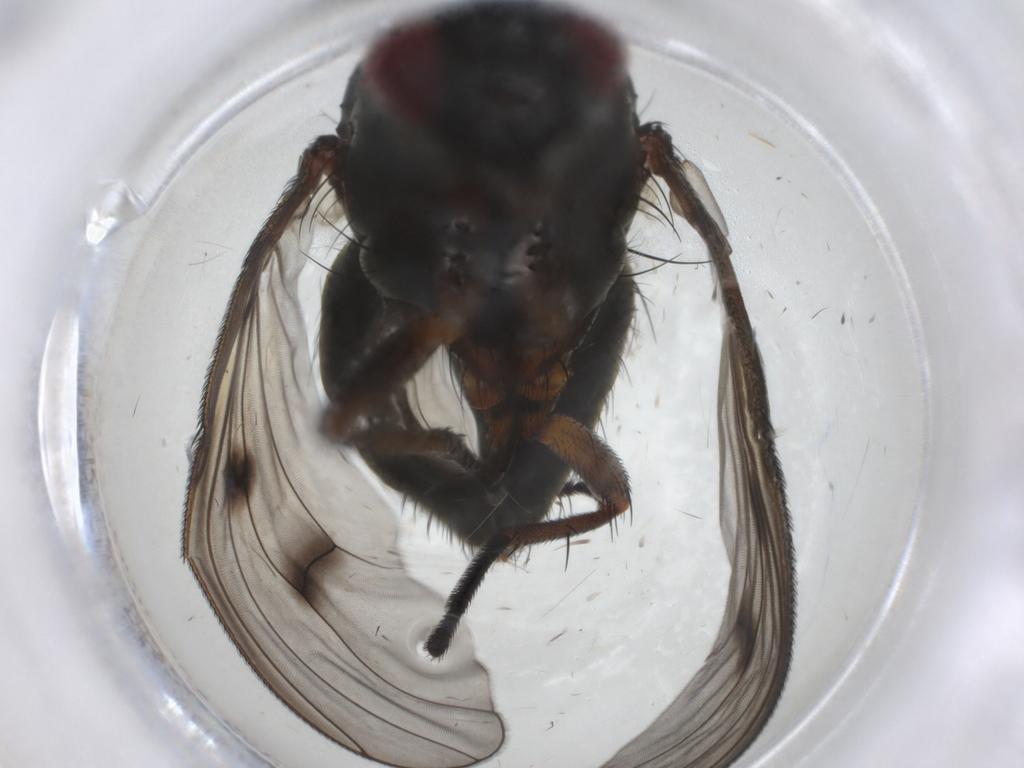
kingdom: Animalia
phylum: Arthropoda
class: Insecta
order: Diptera
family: Muscidae
